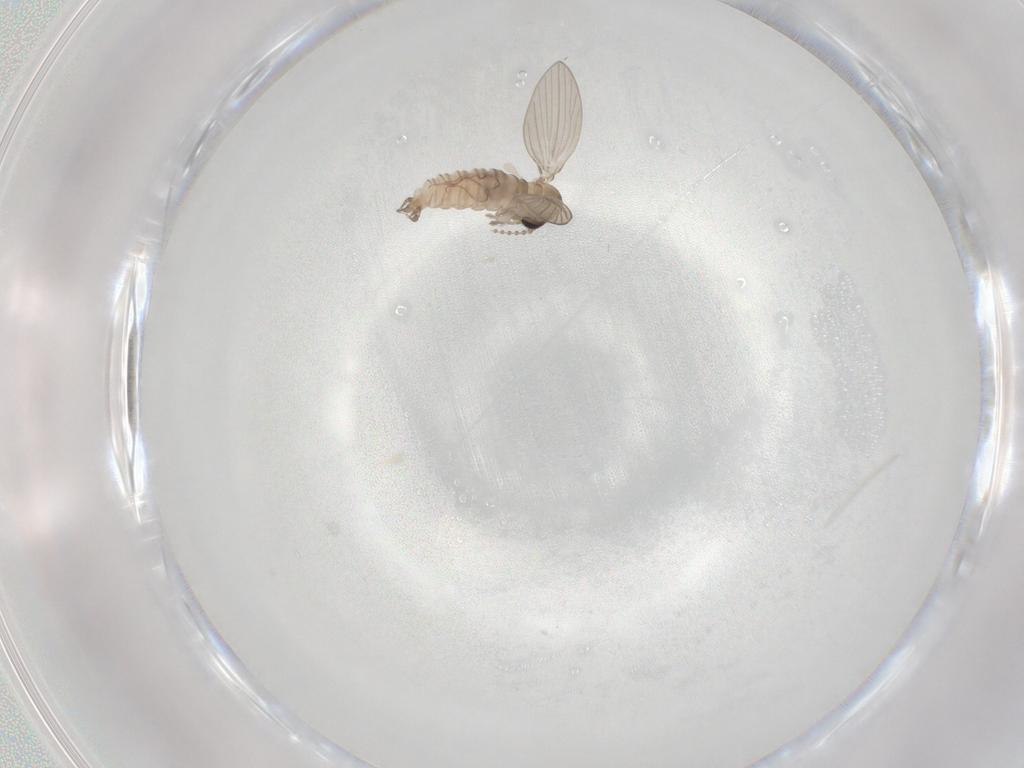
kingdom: Animalia
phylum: Arthropoda
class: Insecta
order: Diptera
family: Psychodidae
